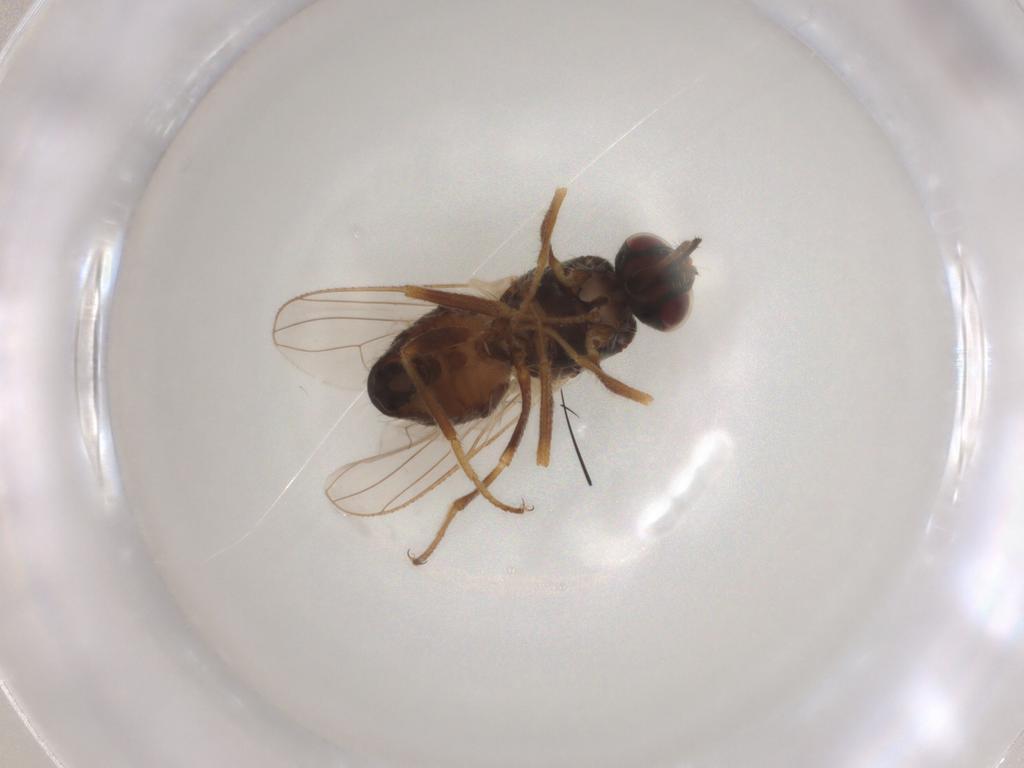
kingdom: Animalia
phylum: Arthropoda
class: Insecta
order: Diptera
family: Muscidae
